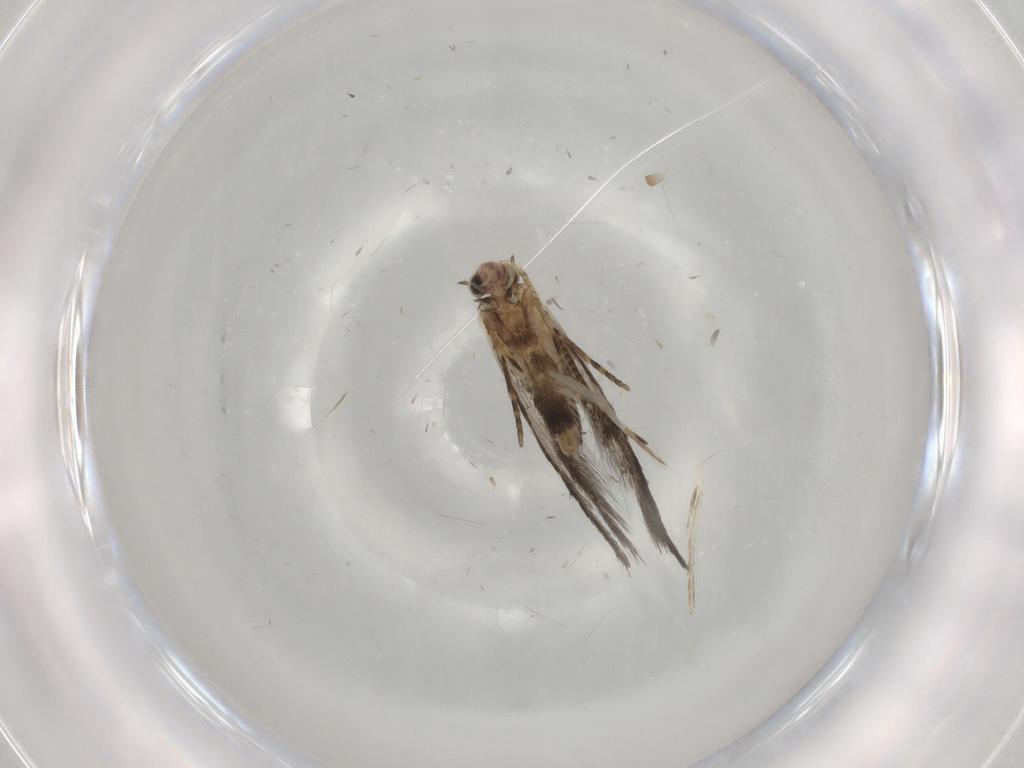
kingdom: Animalia
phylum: Arthropoda
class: Insecta
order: Lepidoptera
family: Tineidae
